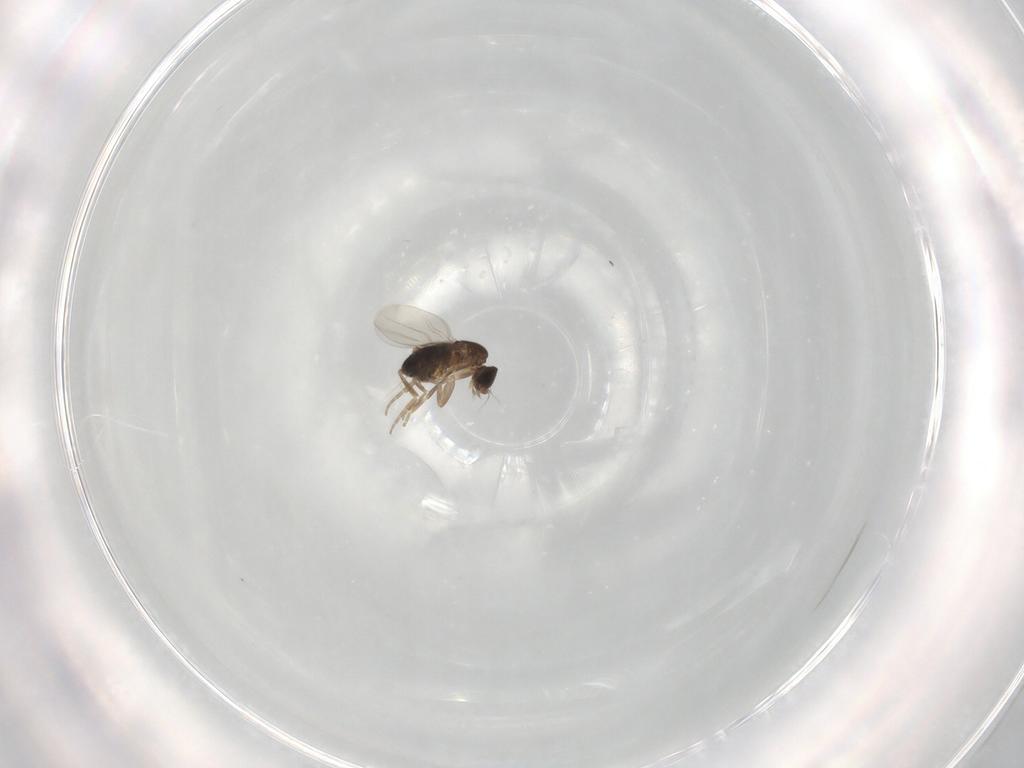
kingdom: Animalia
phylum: Arthropoda
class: Insecta
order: Diptera
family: Phoridae
